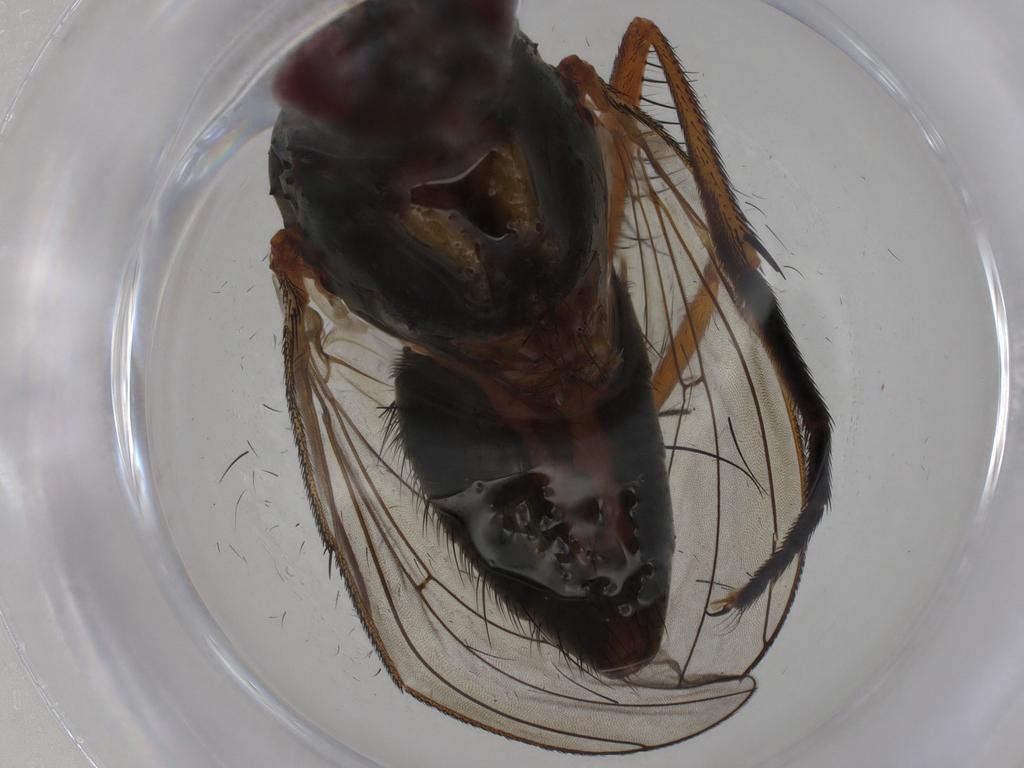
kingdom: Animalia
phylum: Arthropoda
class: Insecta
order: Diptera
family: Anthomyiidae
